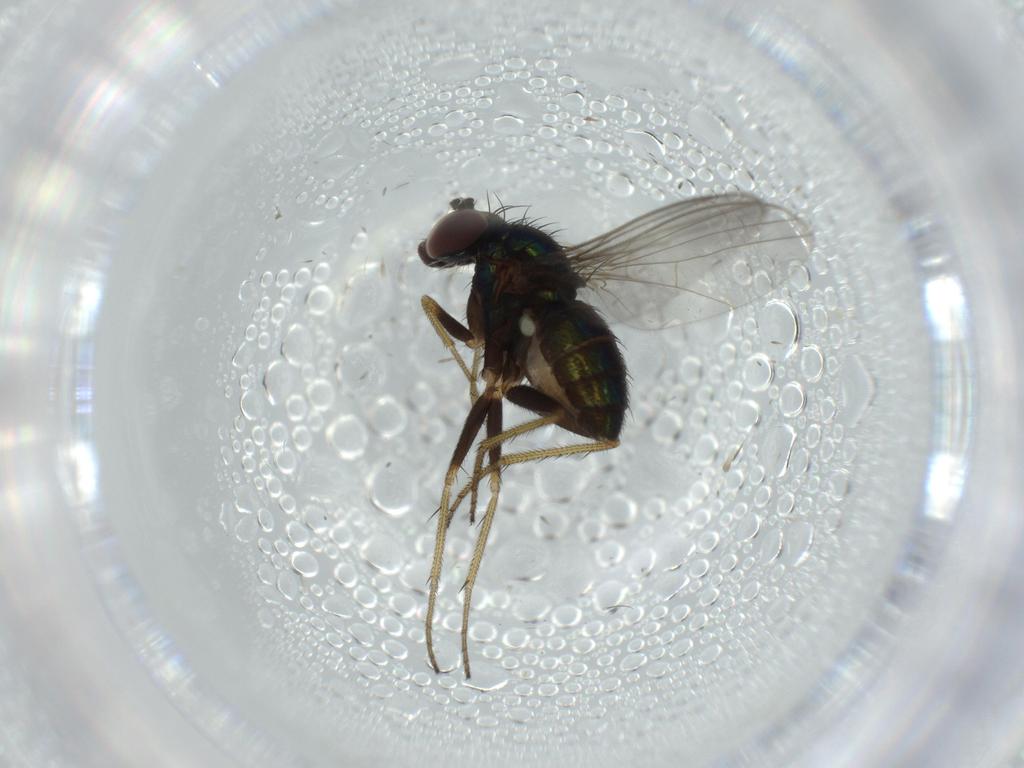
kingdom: Animalia
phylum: Arthropoda
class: Insecta
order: Diptera
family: Dolichopodidae
